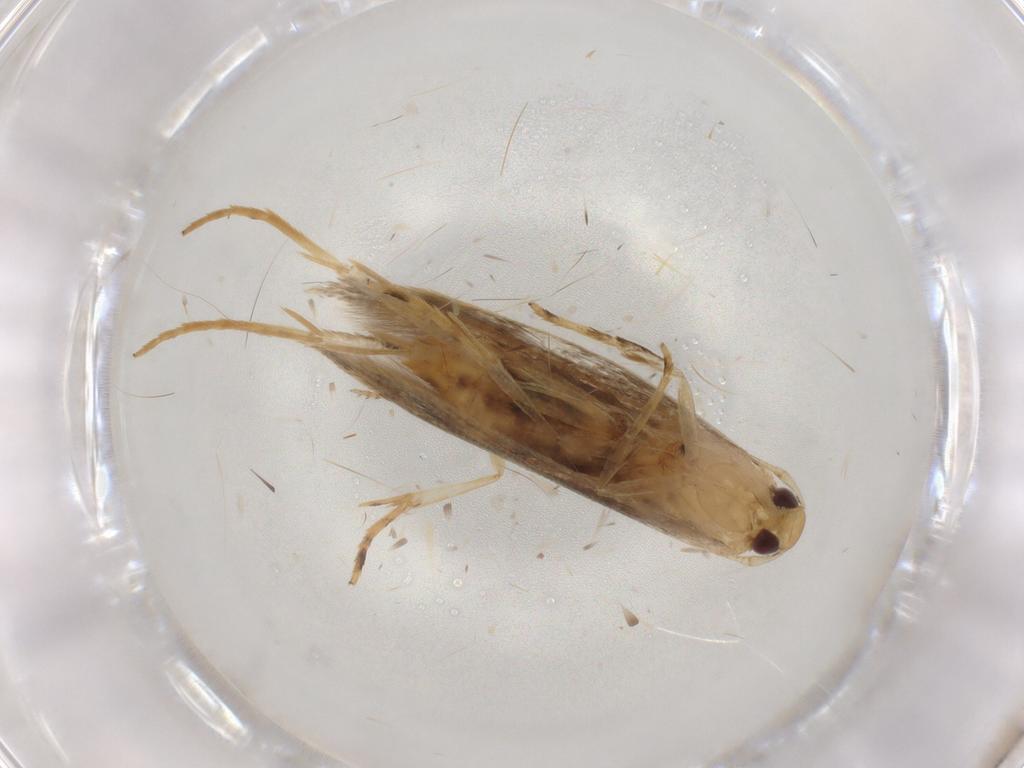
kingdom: Animalia
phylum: Arthropoda
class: Insecta
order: Lepidoptera
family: Cosmopterigidae
